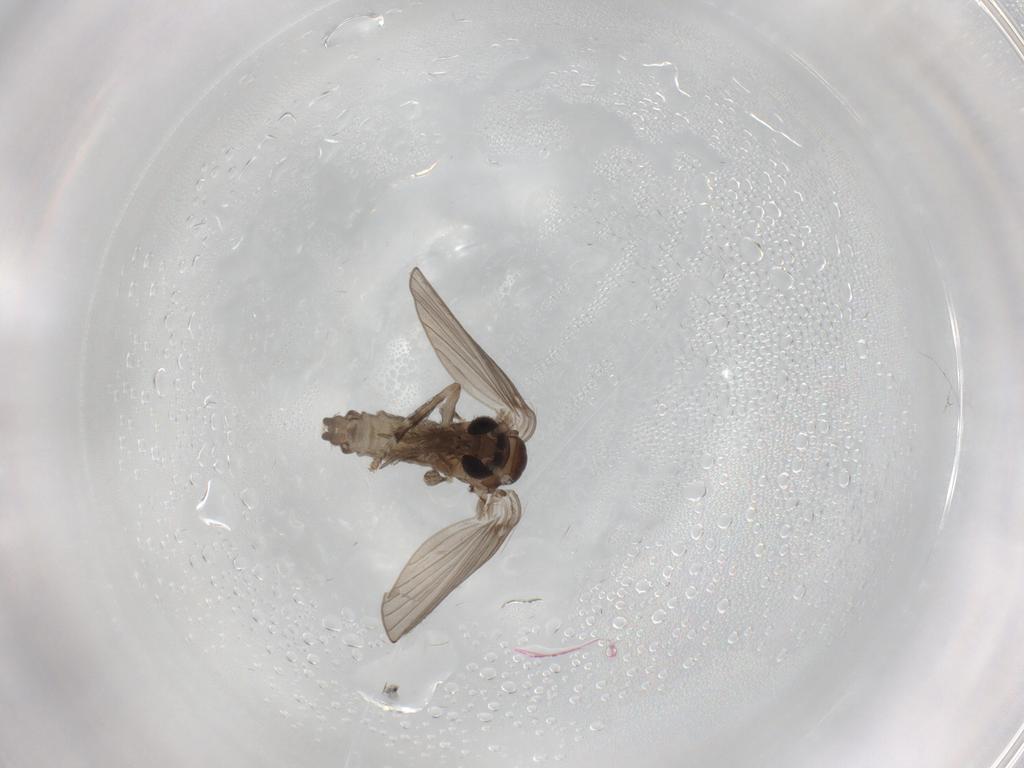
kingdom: Animalia
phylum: Arthropoda
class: Insecta
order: Diptera
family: Psychodidae
